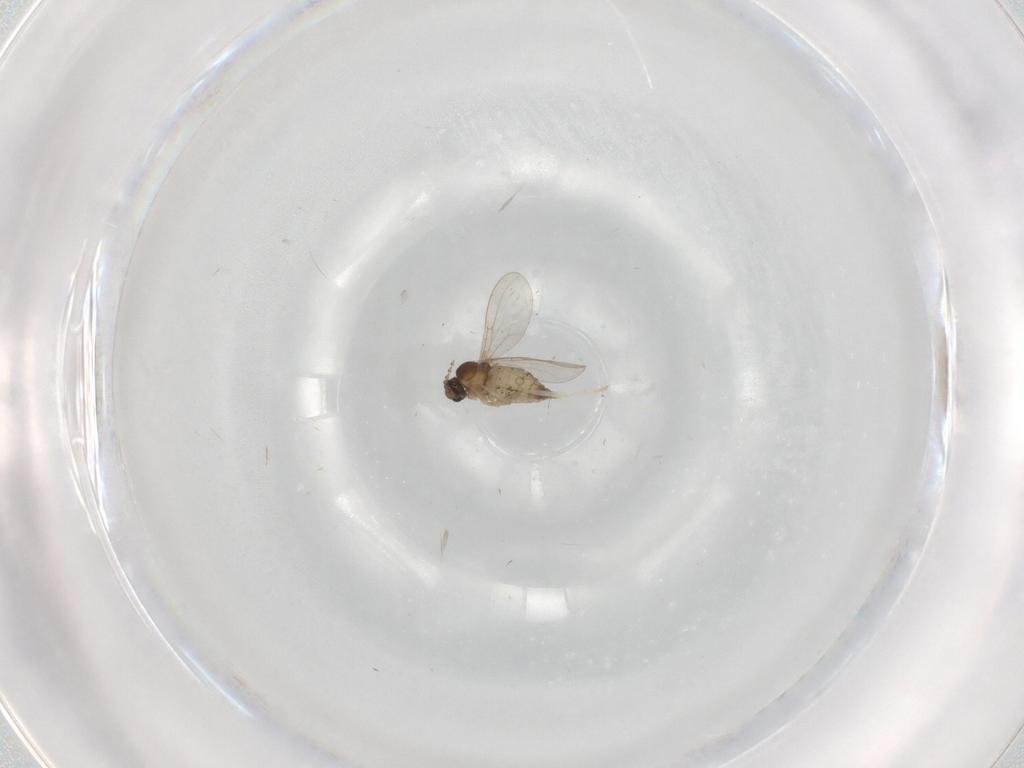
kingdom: Animalia
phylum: Arthropoda
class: Insecta
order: Diptera
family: Cecidomyiidae
